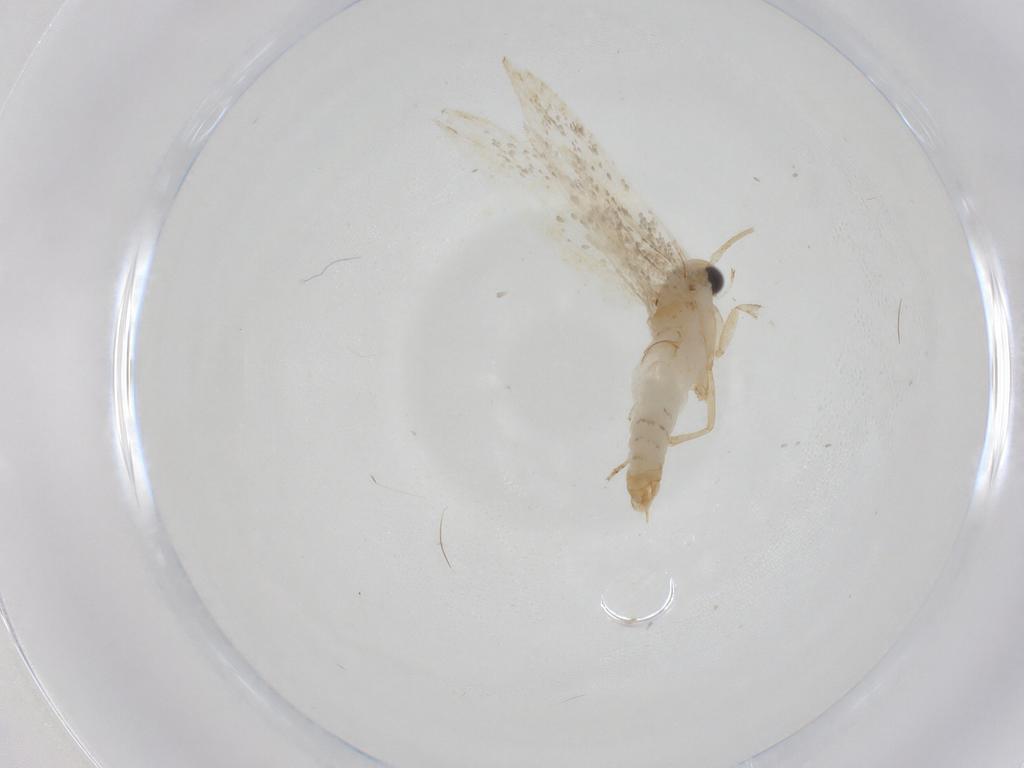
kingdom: Animalia
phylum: Arthropoda
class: Insecta
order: Lepidoptera
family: Tineidae
